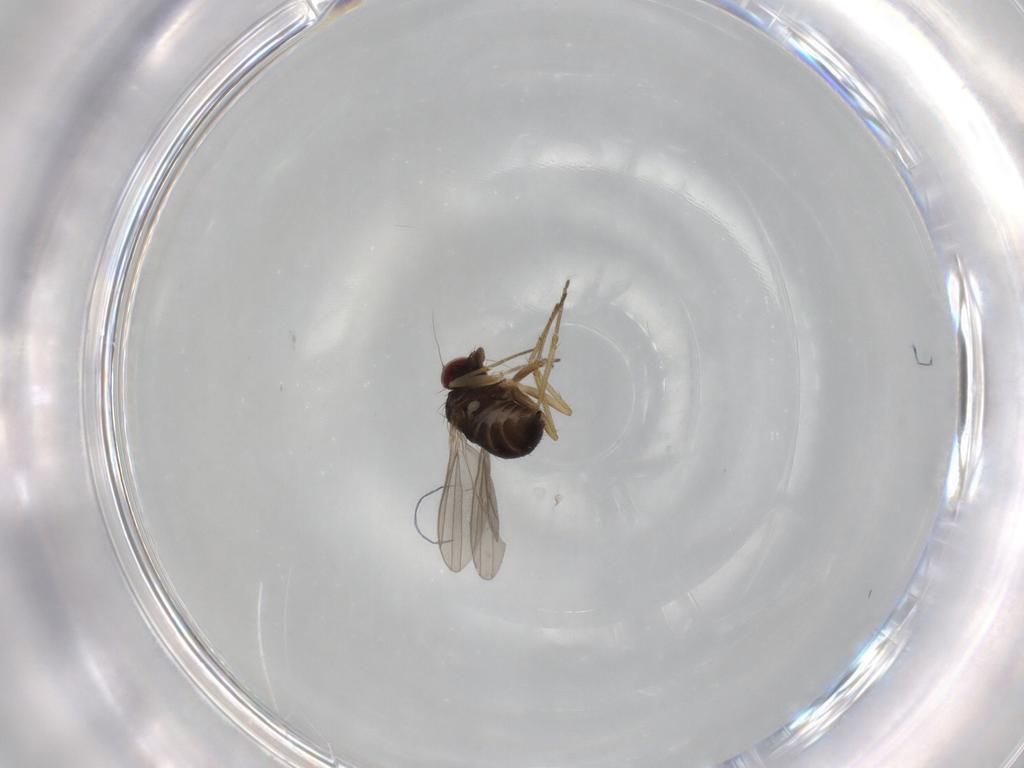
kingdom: Animalia
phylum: Arthropoda
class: Insecta
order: Diptera
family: Dolichopodidae
